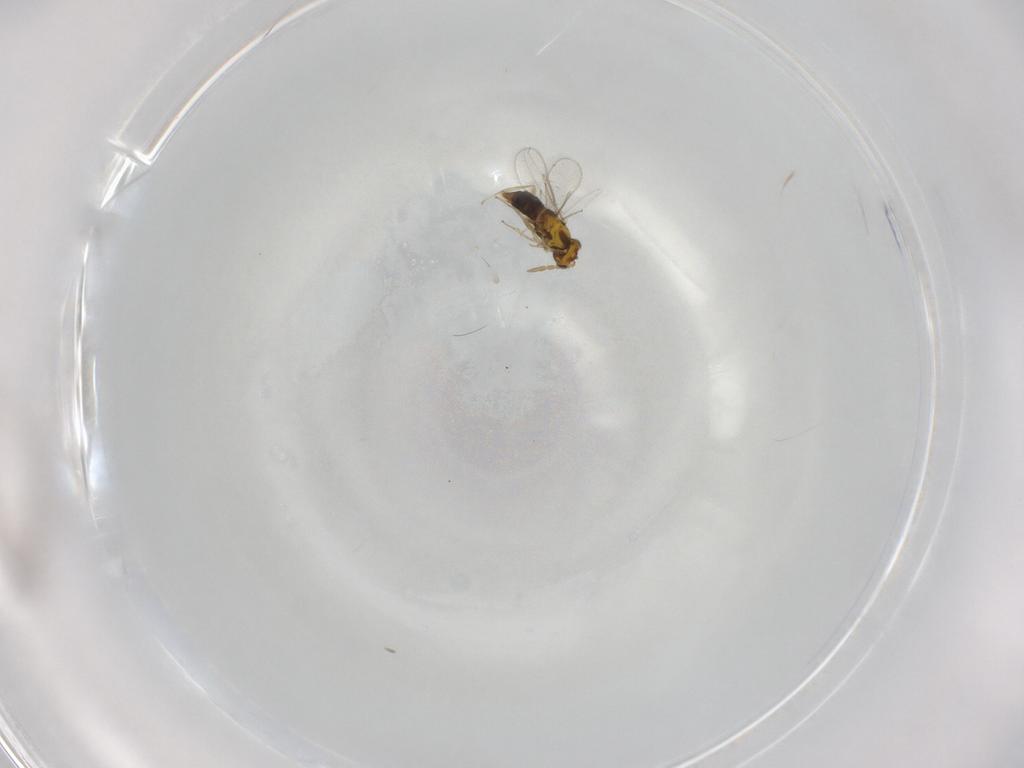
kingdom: Animalia
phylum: Arthropoda
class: Insecta
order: Hymenoptera
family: Aphelinidae
